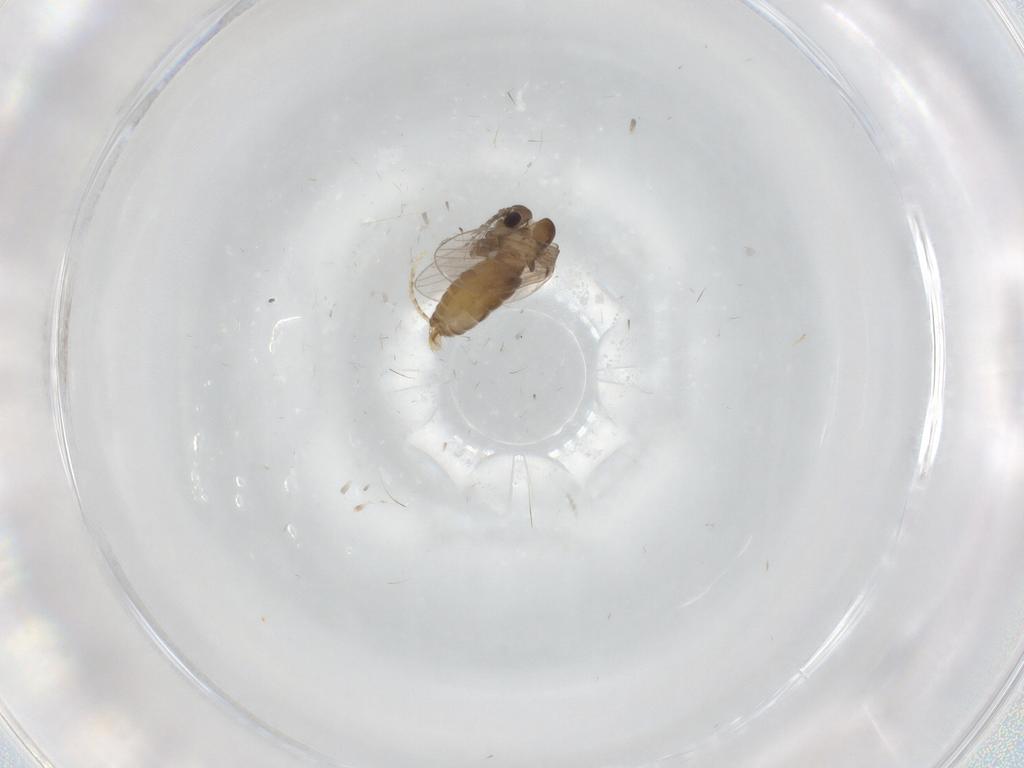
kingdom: Animalia
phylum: Arthropoda
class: Insecta
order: Diptera
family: Cecidomyiidae
